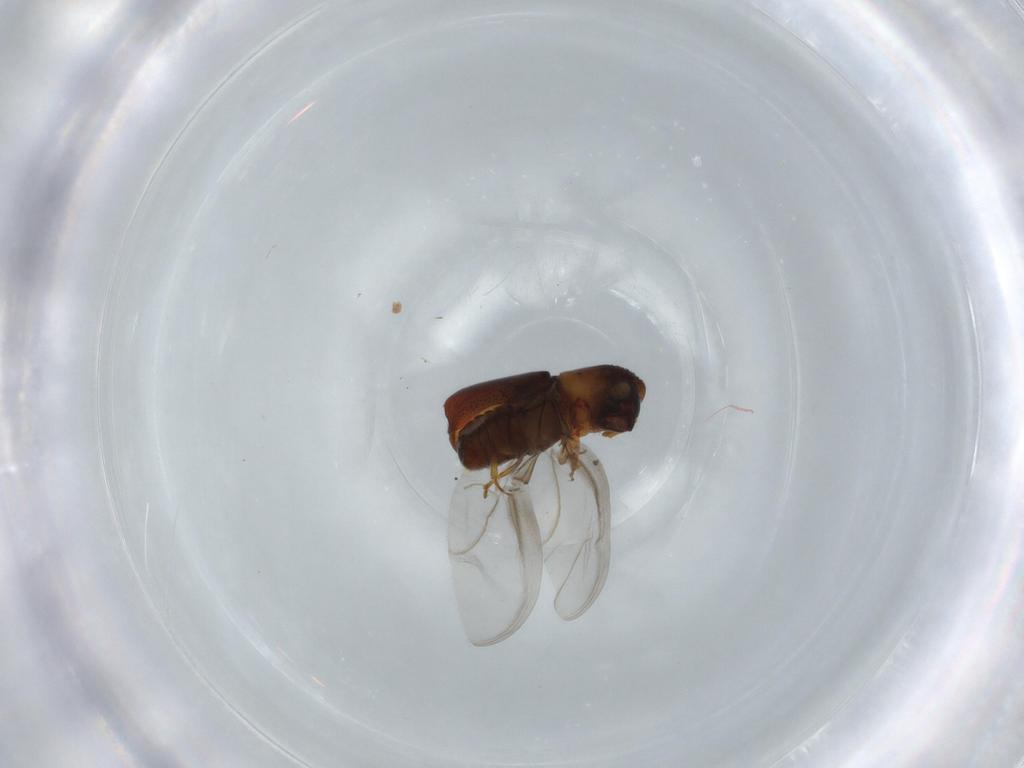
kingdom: Animalia
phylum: Arthropoda
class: Insecta
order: Coleoptera
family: Curculionidae
